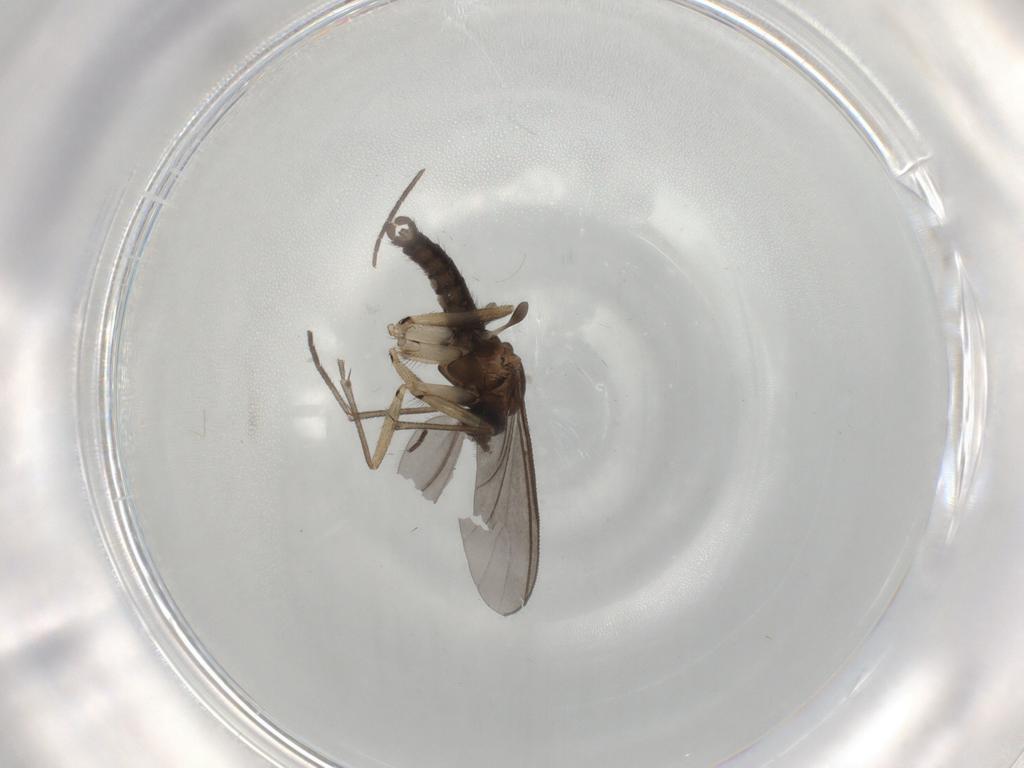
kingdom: Animalia
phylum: Arthropoda
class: Insecta
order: Diptera
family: Sciaridae
